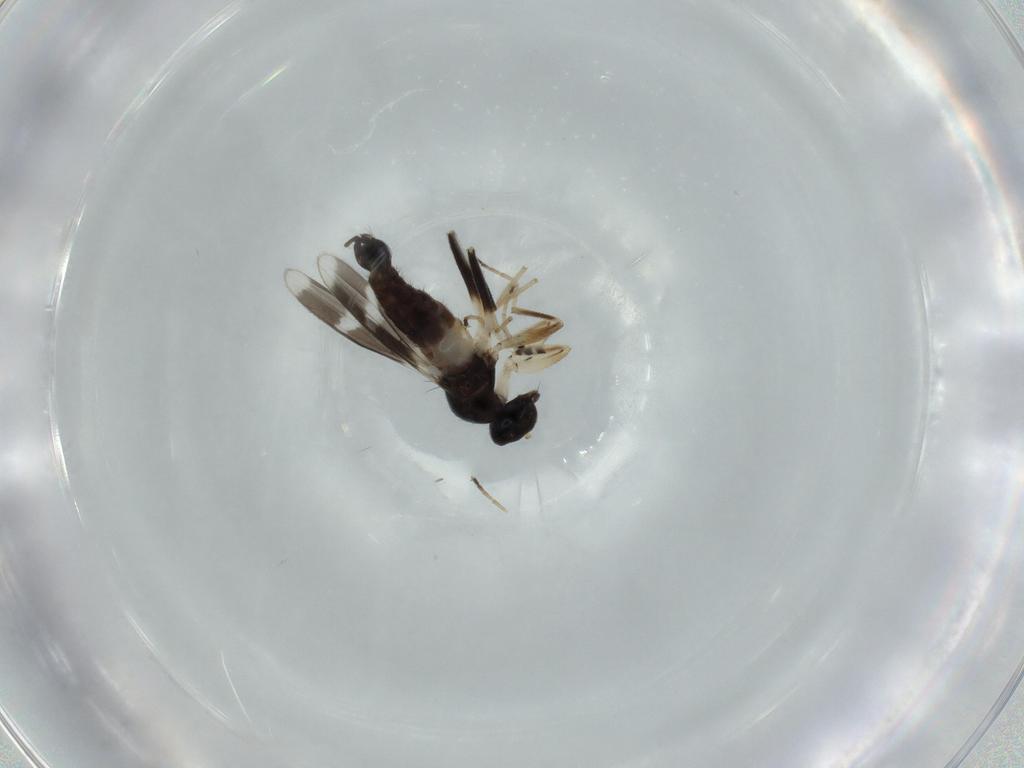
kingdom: Animalia
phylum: Arthropoda
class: Insecta
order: Diptera
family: Hybotidae
